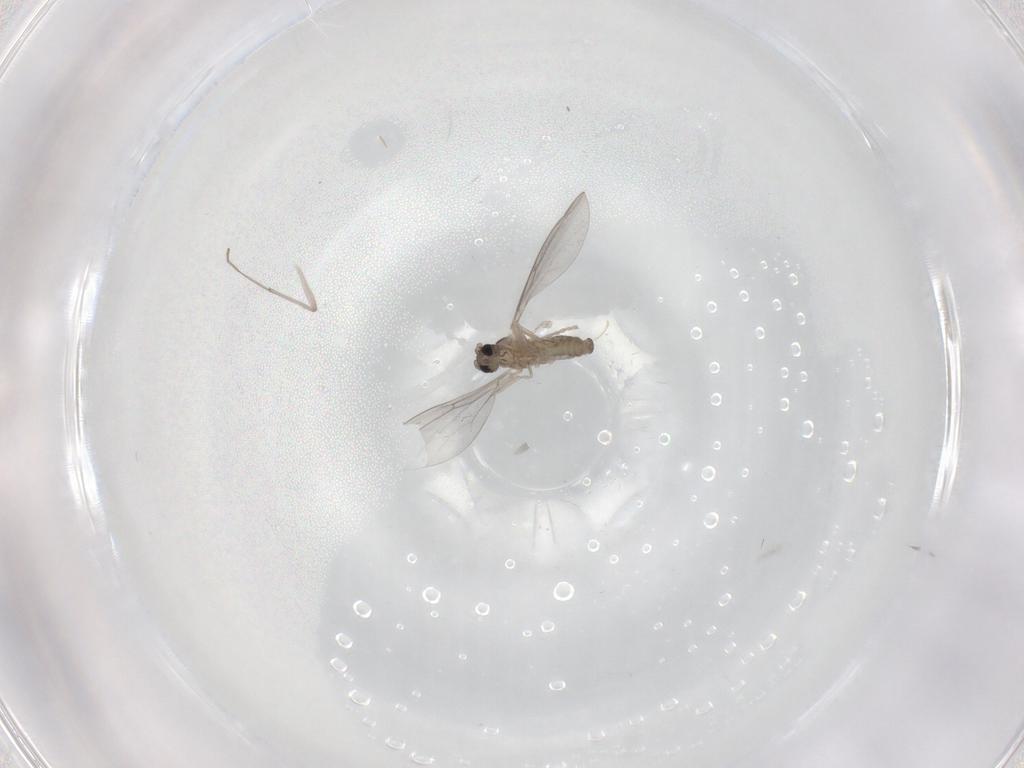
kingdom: Animalia
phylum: Arthropoda
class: Insecta
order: Diptera
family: Cecidomyiidae
